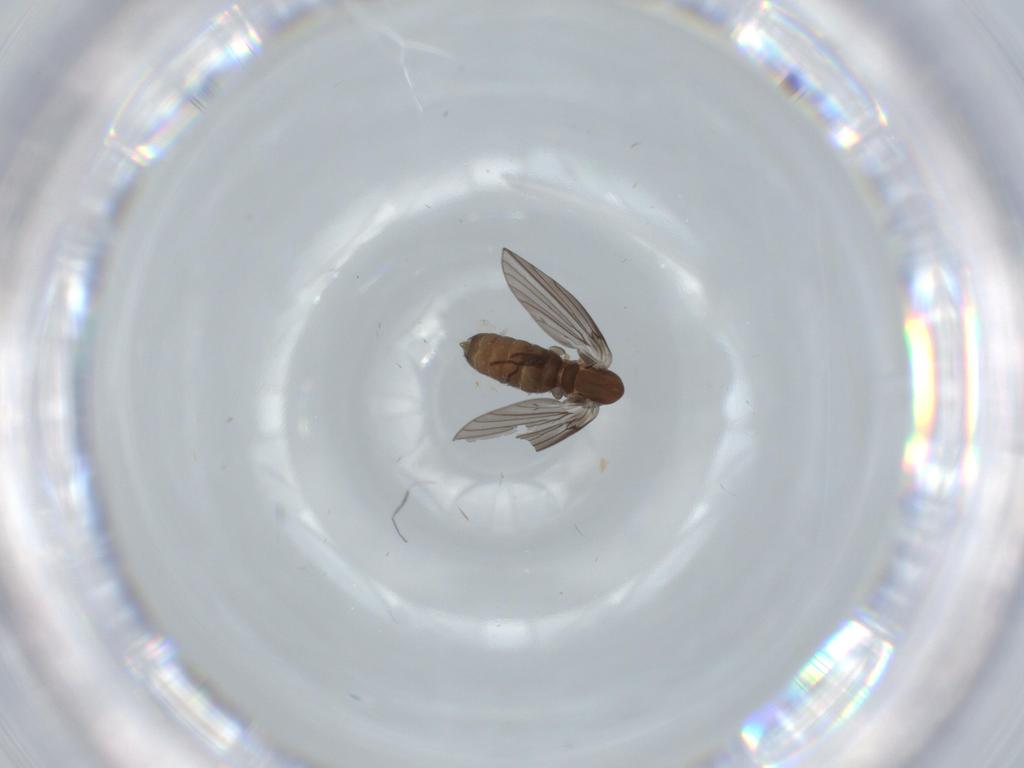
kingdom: Animalia
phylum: Arthropoda
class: Insecta
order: Diptera
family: Psychodidae
